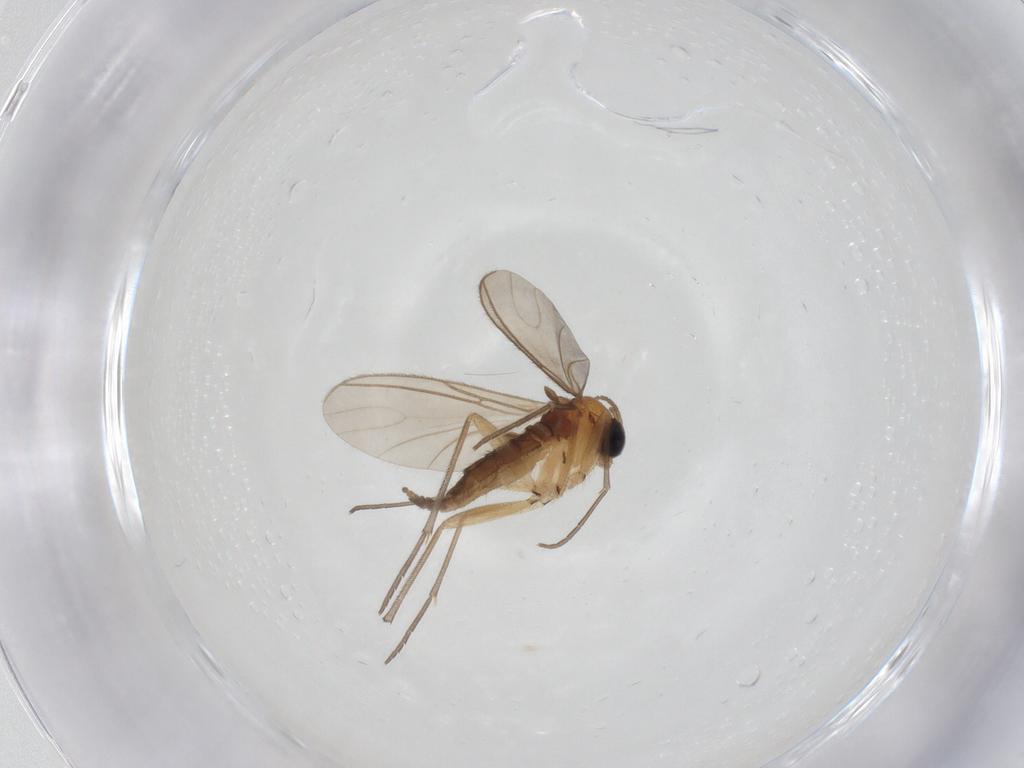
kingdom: Animalia
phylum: Arthropoda
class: Insecta
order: Diptera
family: Sciaridae
